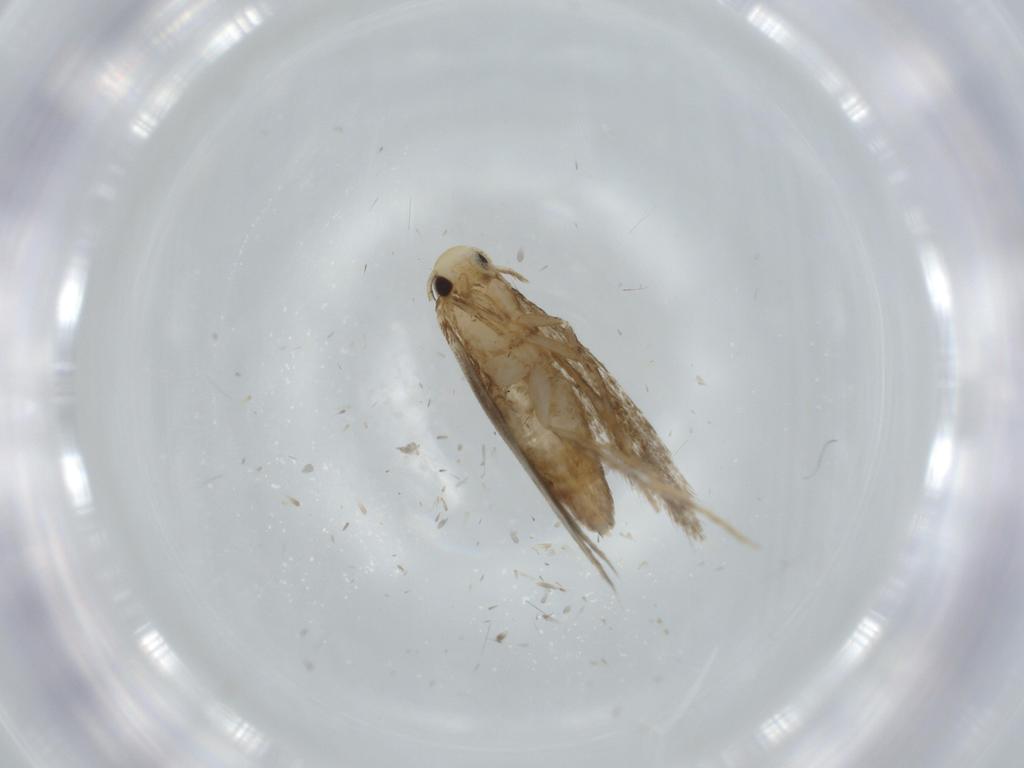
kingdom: Animalia
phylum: Arthropoda
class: Insecta
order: Lepidoptera
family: Tineidae
